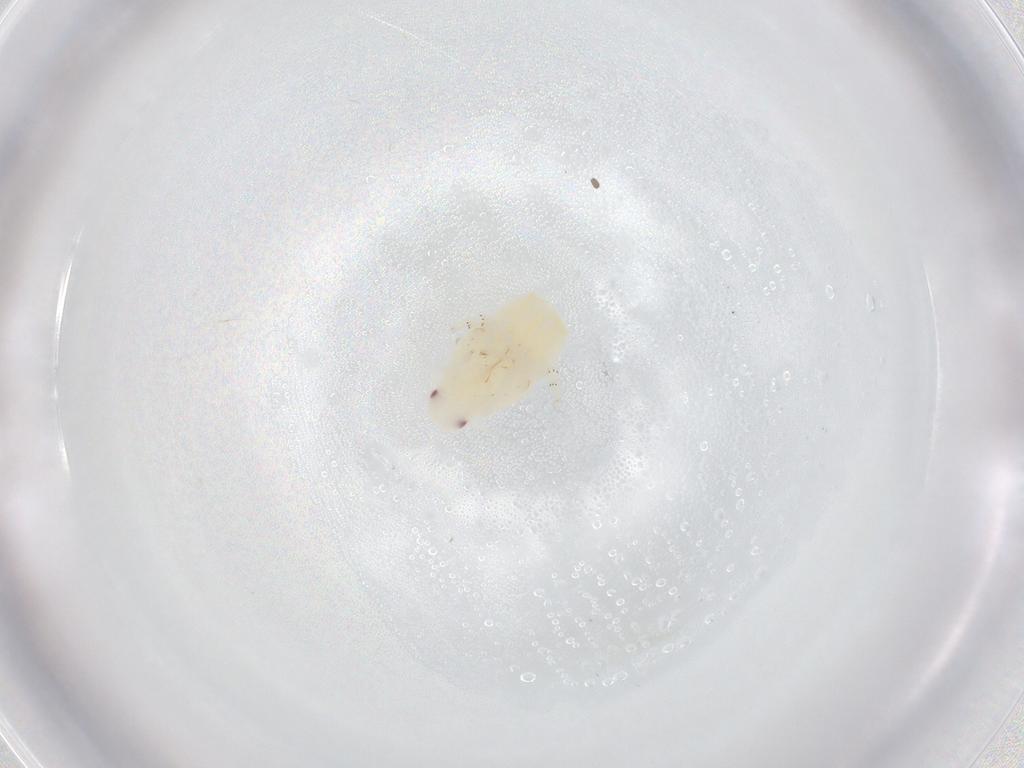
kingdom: Animalia
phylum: Arthropoda
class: Insecta
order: Hemiptera
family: Flatidae
